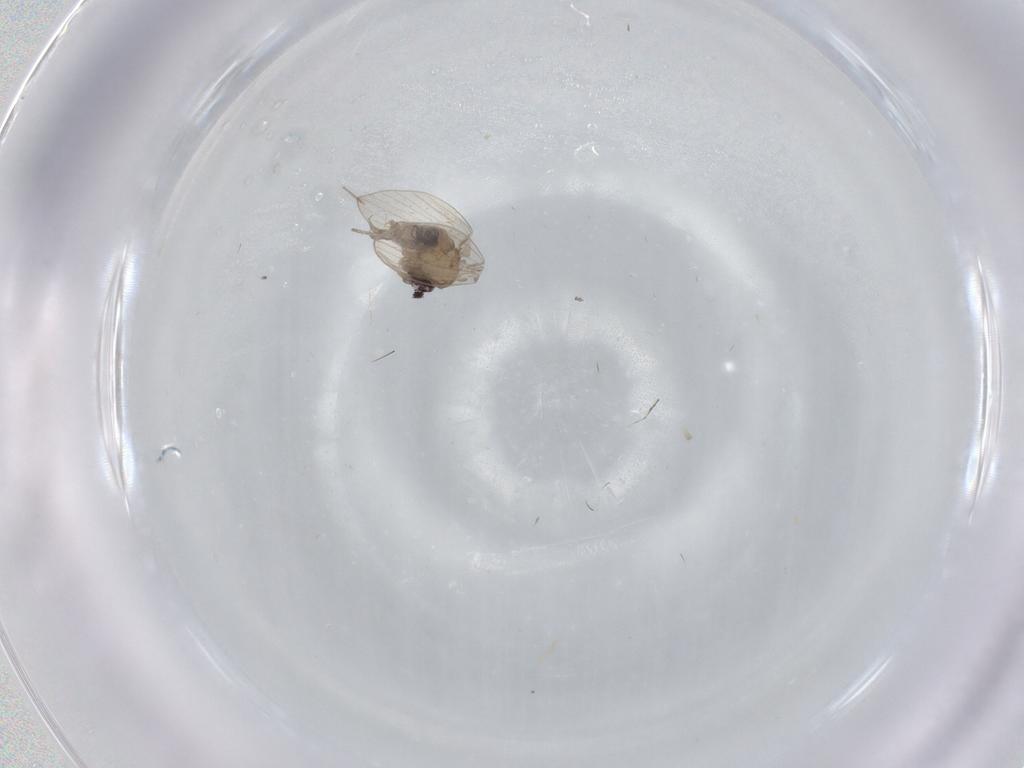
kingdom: Animalia
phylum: Arthropoda
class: Insecta
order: Diptera
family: Psychodidae
